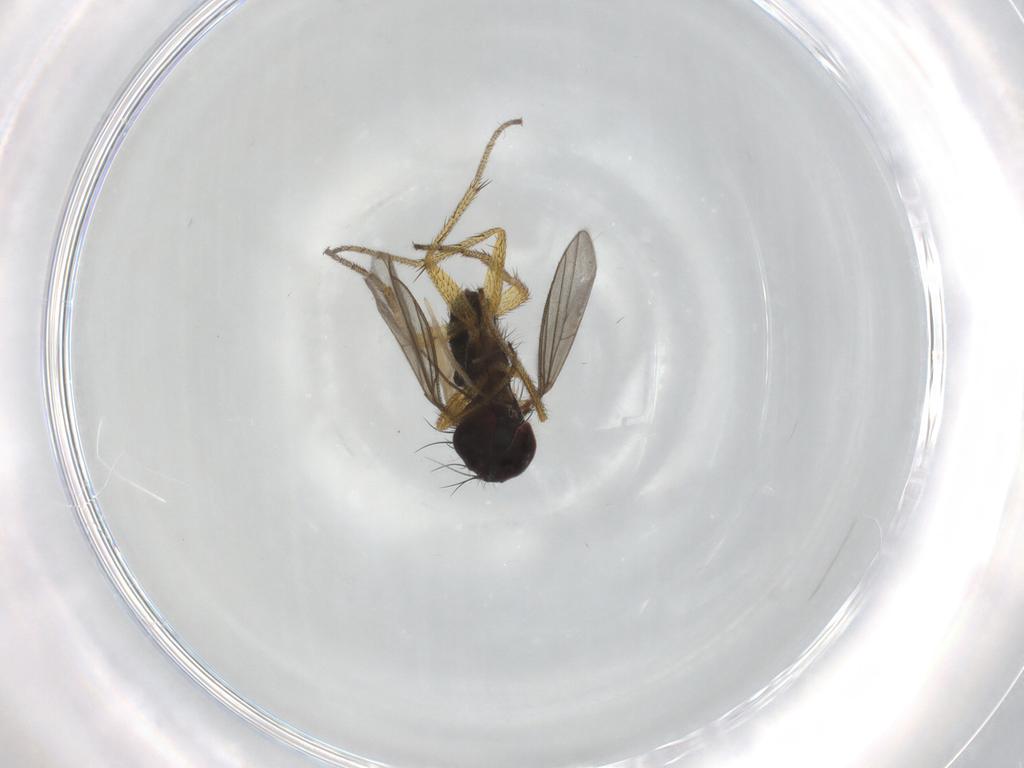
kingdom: Animalia
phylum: Arthropoda
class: Insecta
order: Diptera
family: Dolichopodidae
